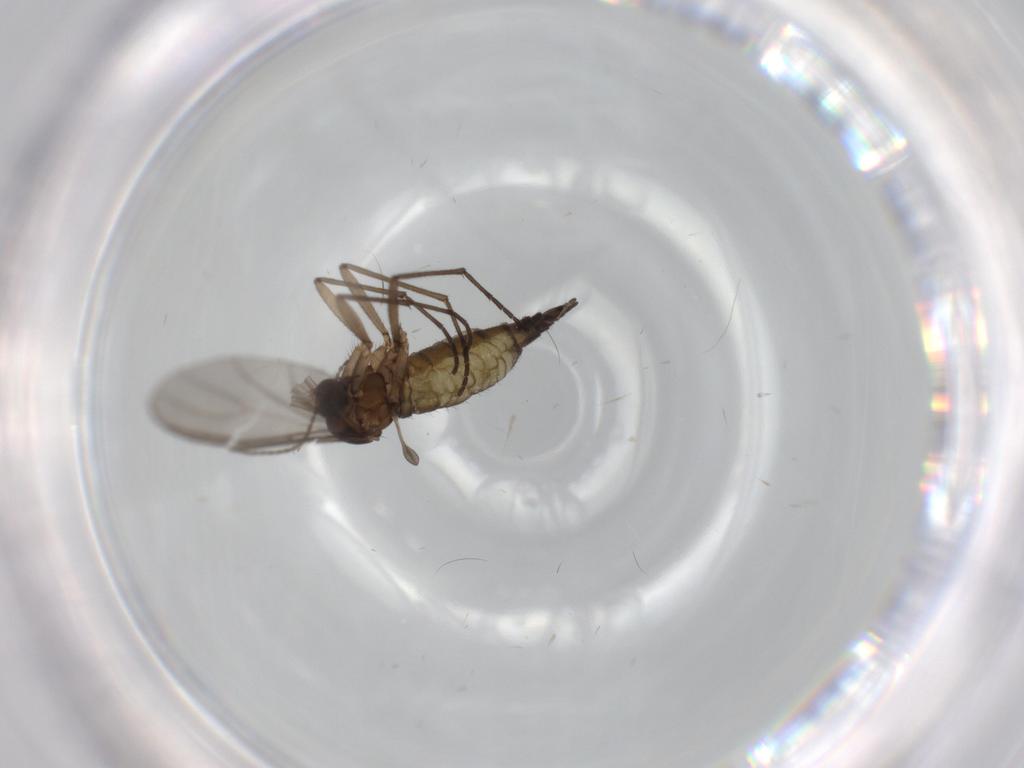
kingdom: Animalia
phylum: Arthropoda
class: Insecta
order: Diptera
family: Sciaridae
